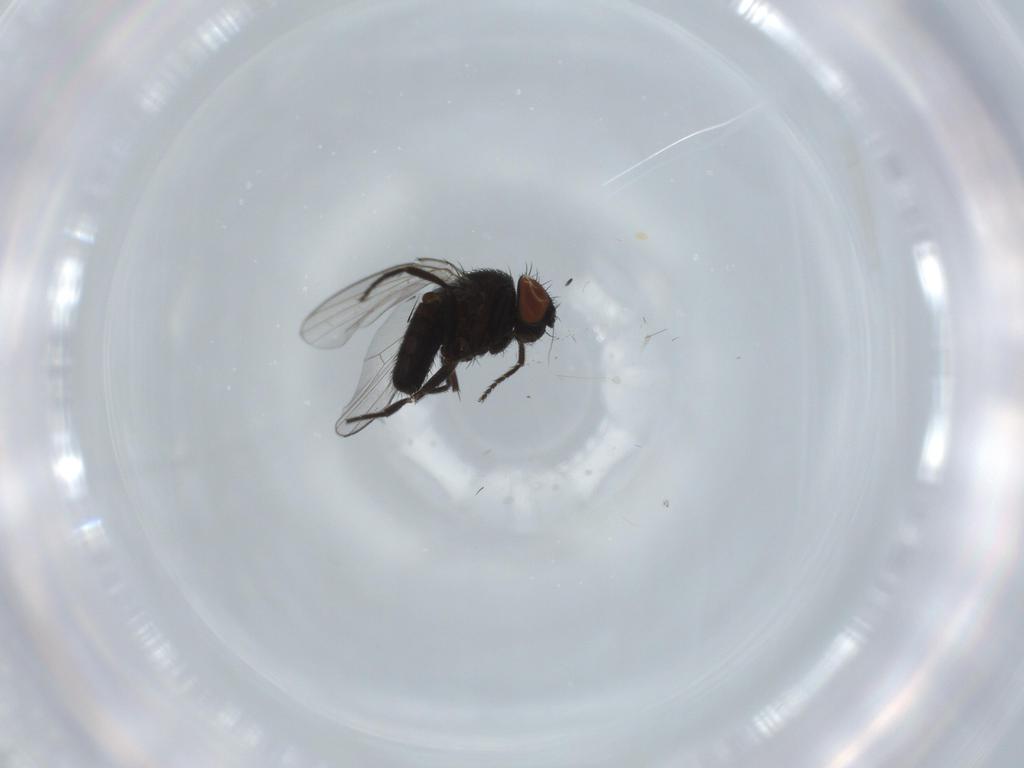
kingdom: Animalia
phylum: Arthropoda
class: Insecta
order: Diptera
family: Milichiidae
